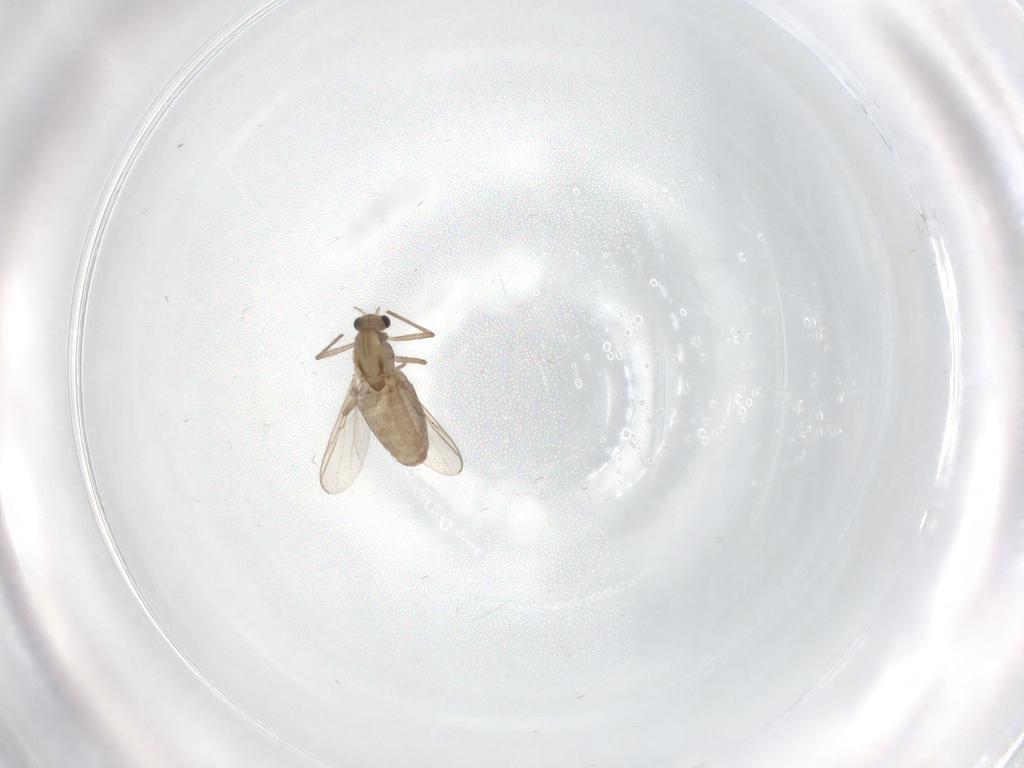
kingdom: Animalia
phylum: Arthropoda
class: Insecta
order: Diptera
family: Chironomidae
